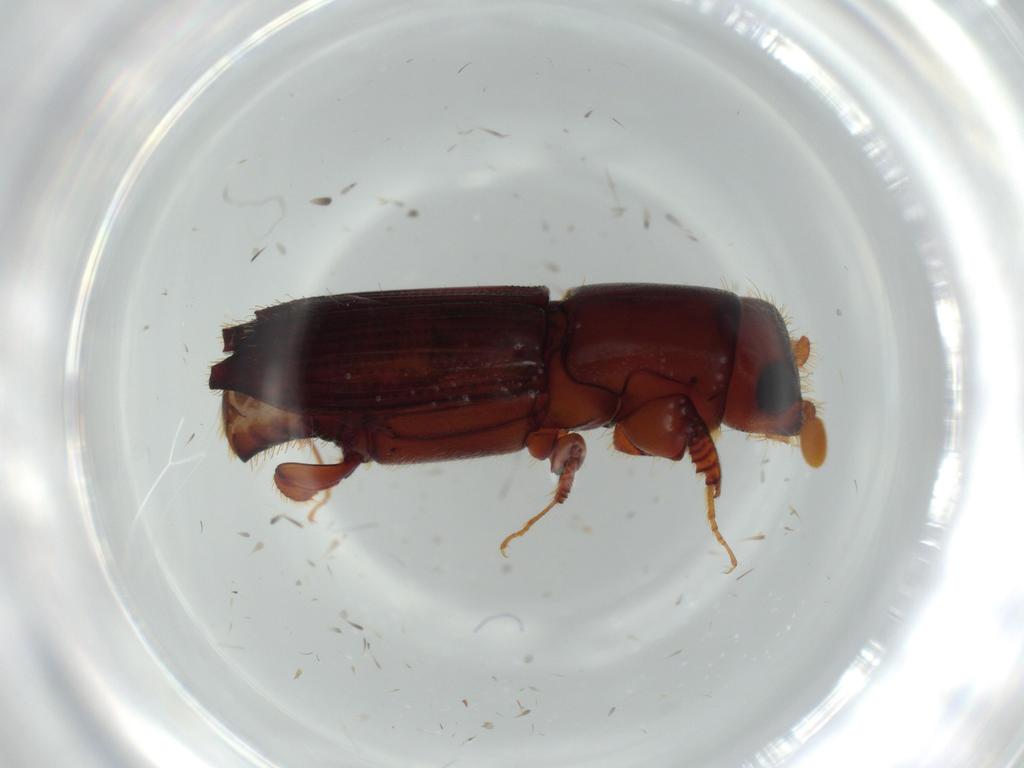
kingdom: Animalia
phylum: Arthropoda
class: Insecta
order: Coleoptera
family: Curculionidae
